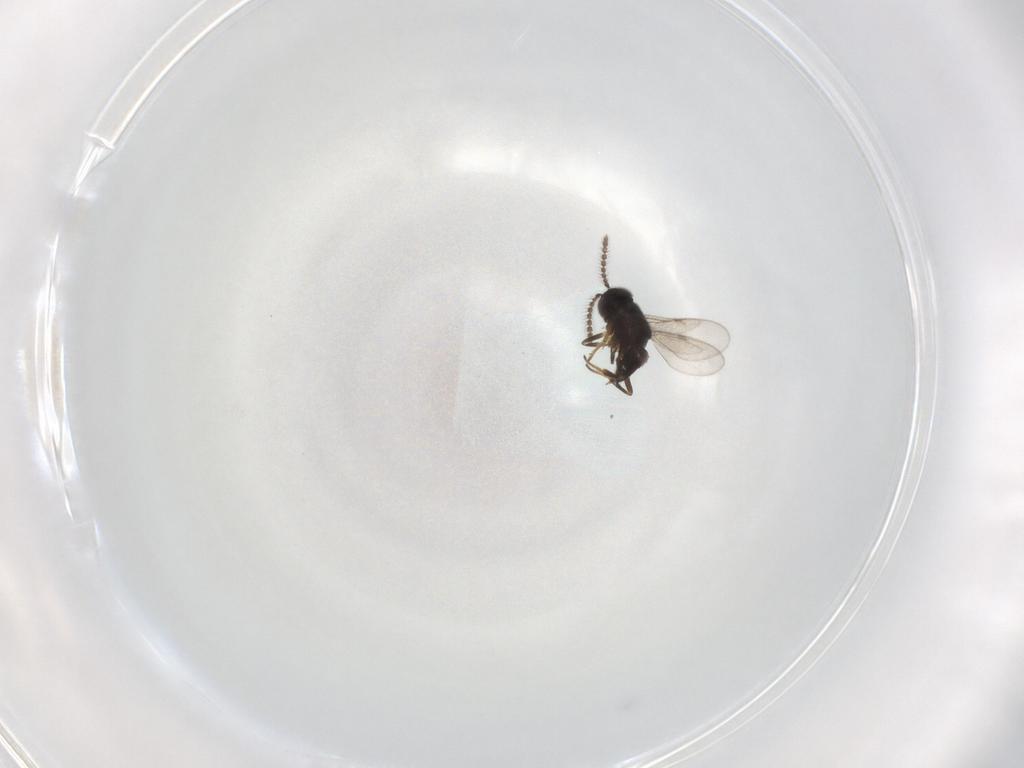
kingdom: Animalia
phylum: Arthropoda
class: Insecta
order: Hymenoptera
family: Encyrtidae
